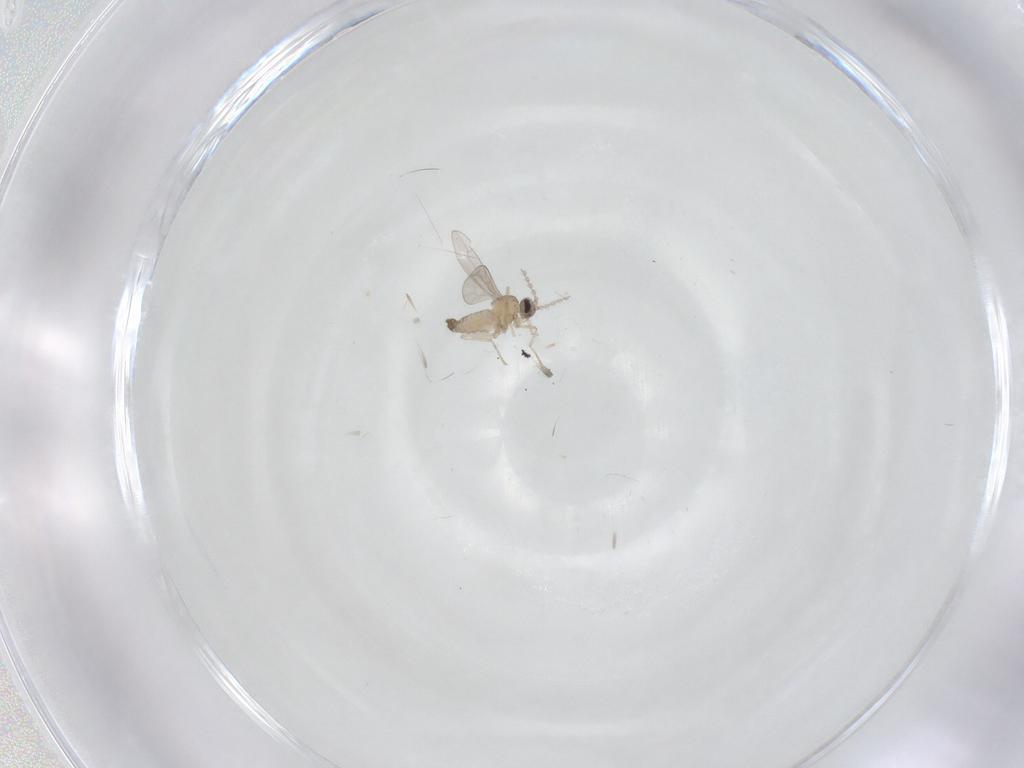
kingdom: Animalia
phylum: Arthropoda
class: Insecta
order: Diptera
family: Cecidomyiidae
